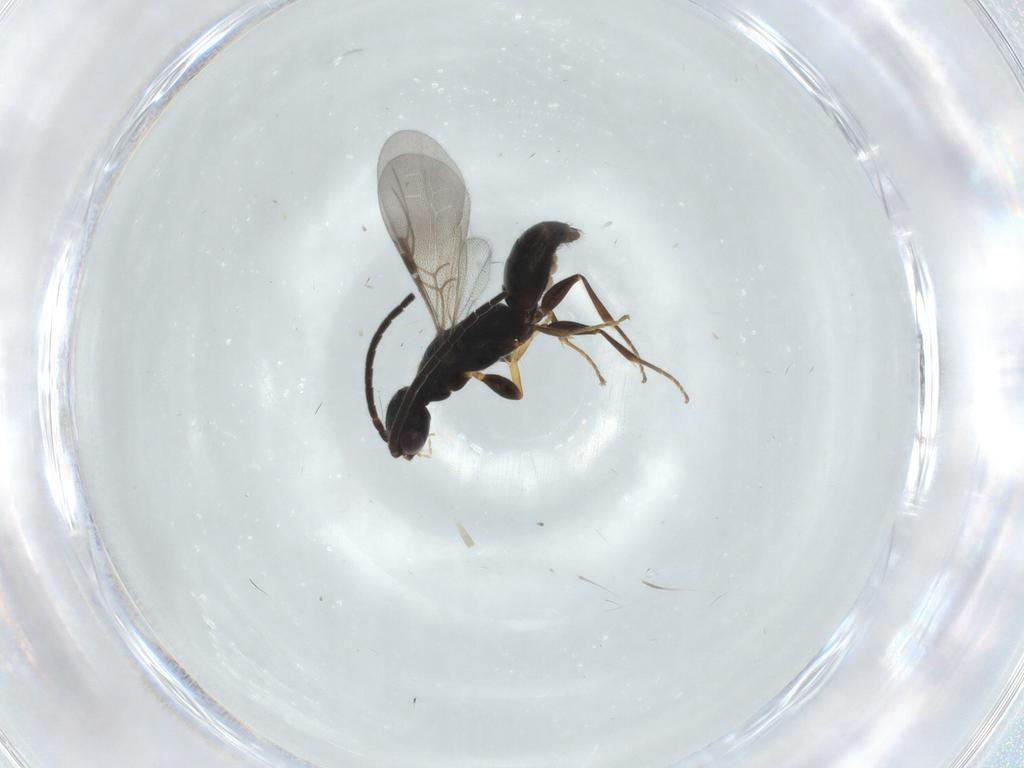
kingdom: Animalia
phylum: Arthropoda
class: Insecta
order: Hymenoptera
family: Bethylidae
